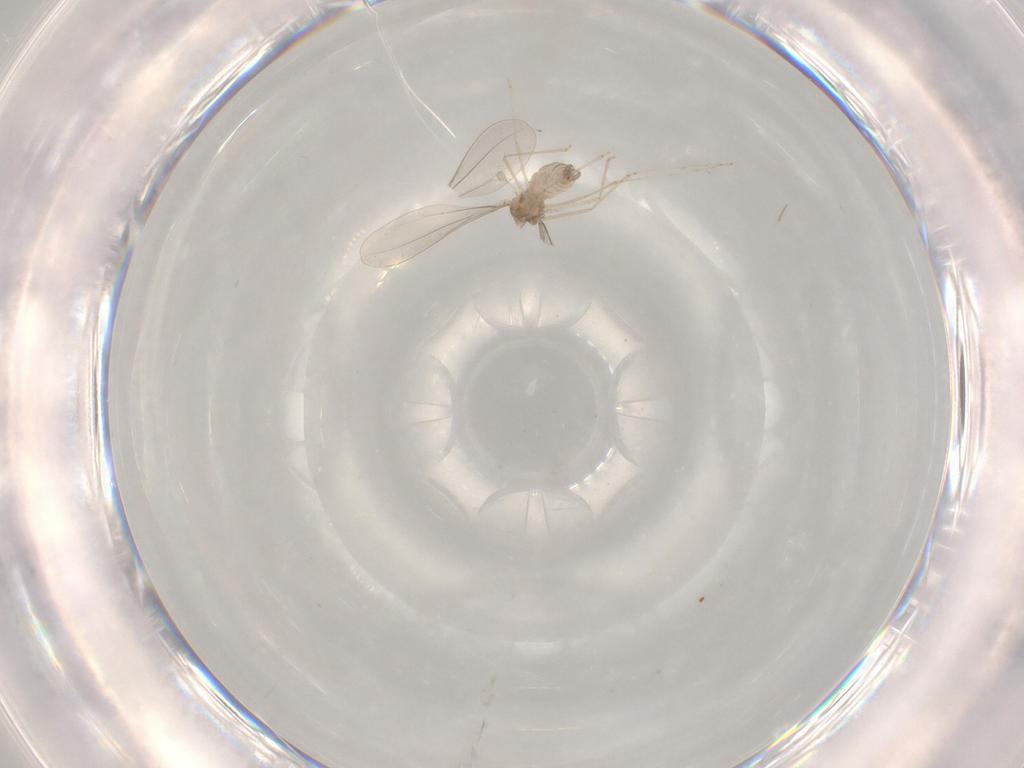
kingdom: Animalia
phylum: Arthropoda
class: Insecta
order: Diptera
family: Cecidomyiidae
